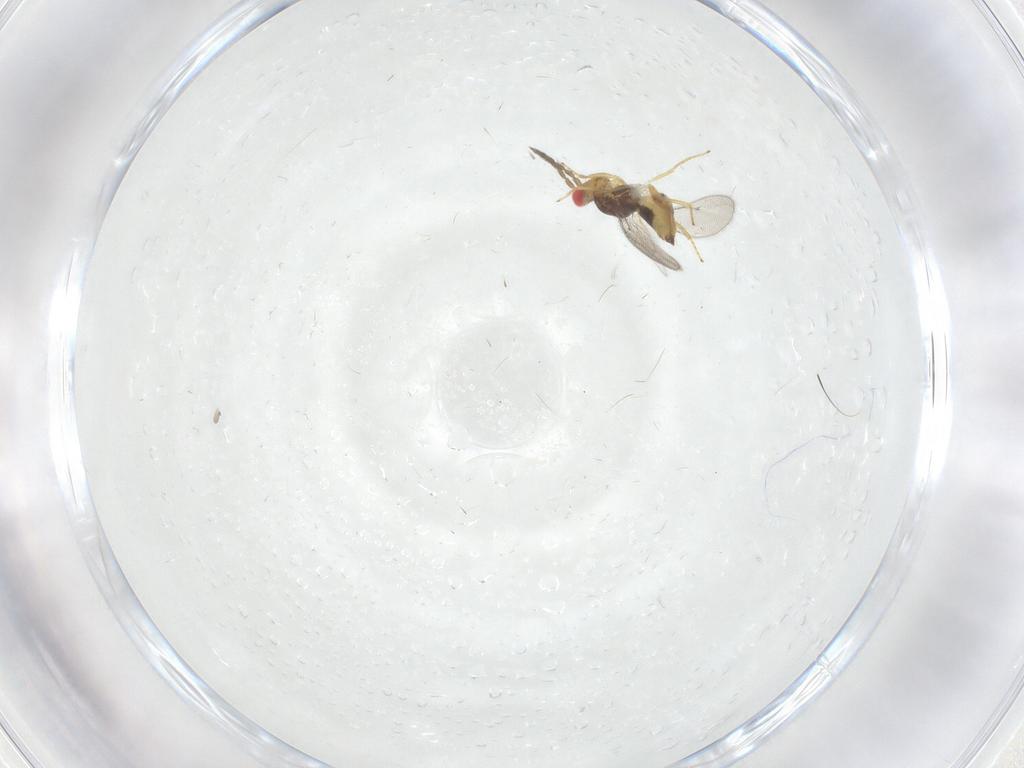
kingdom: Animalia
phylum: Arthropoda
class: Insecta
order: Hymenoptera
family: Eulophidae
